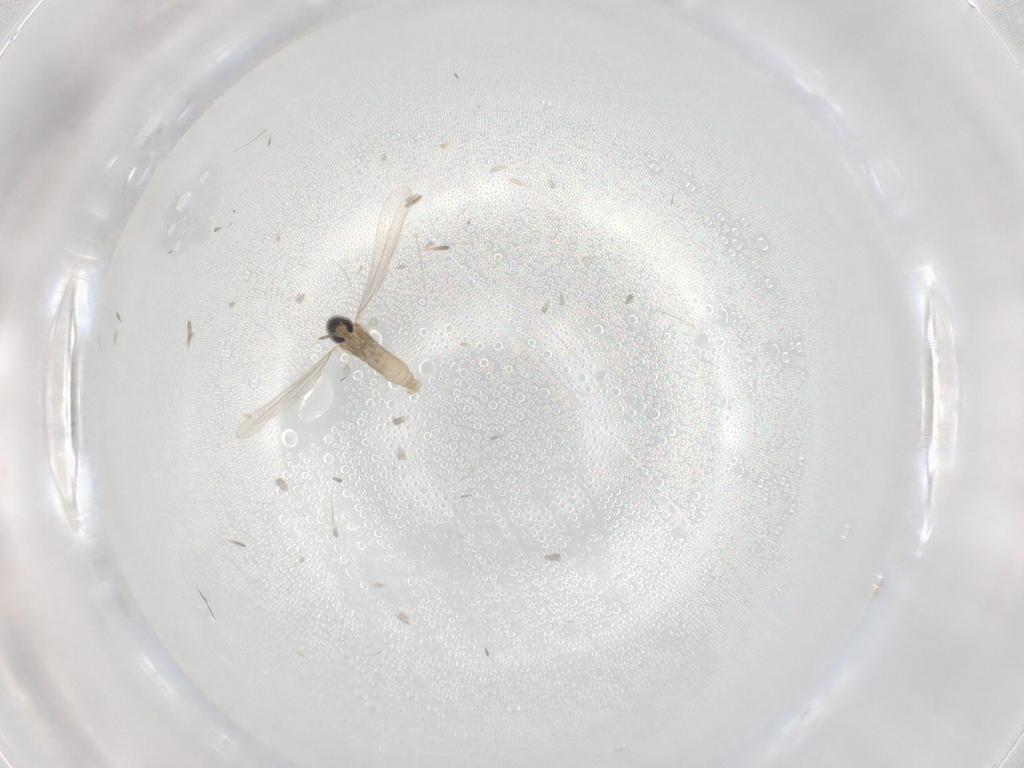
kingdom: Animalia
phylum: Arthropoda
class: Insecta
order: Diptera
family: Cecidomyiidae
